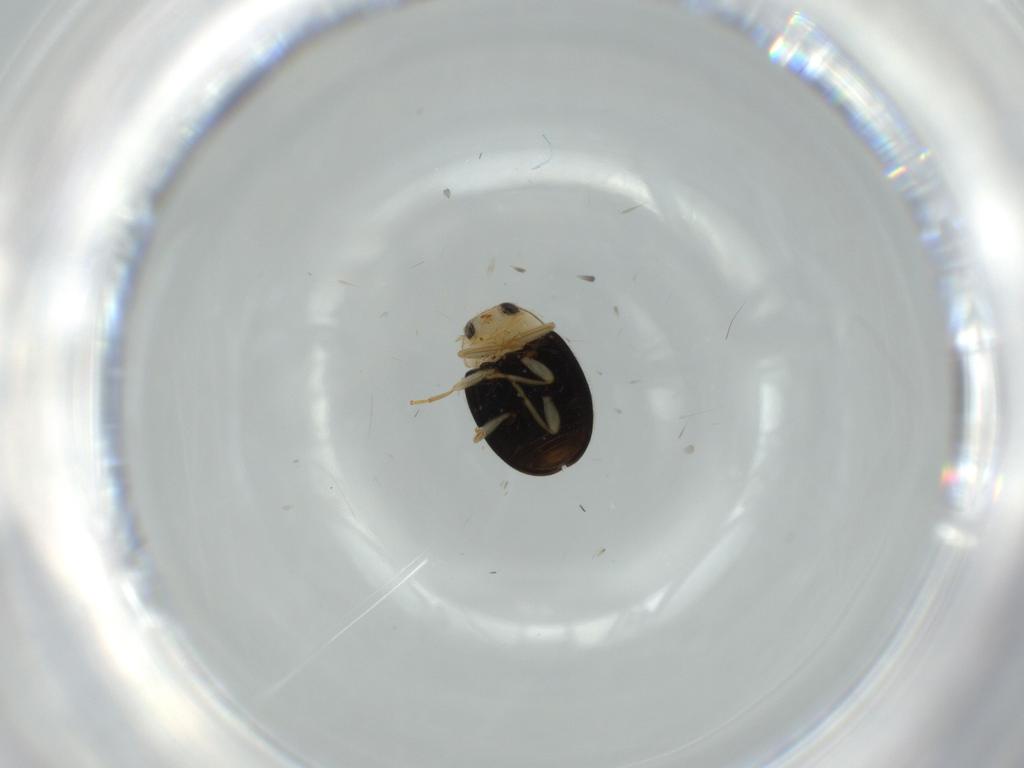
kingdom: Animalia
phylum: Arthropoda
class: Insecta
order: Coleoptera
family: Coccinellidae
